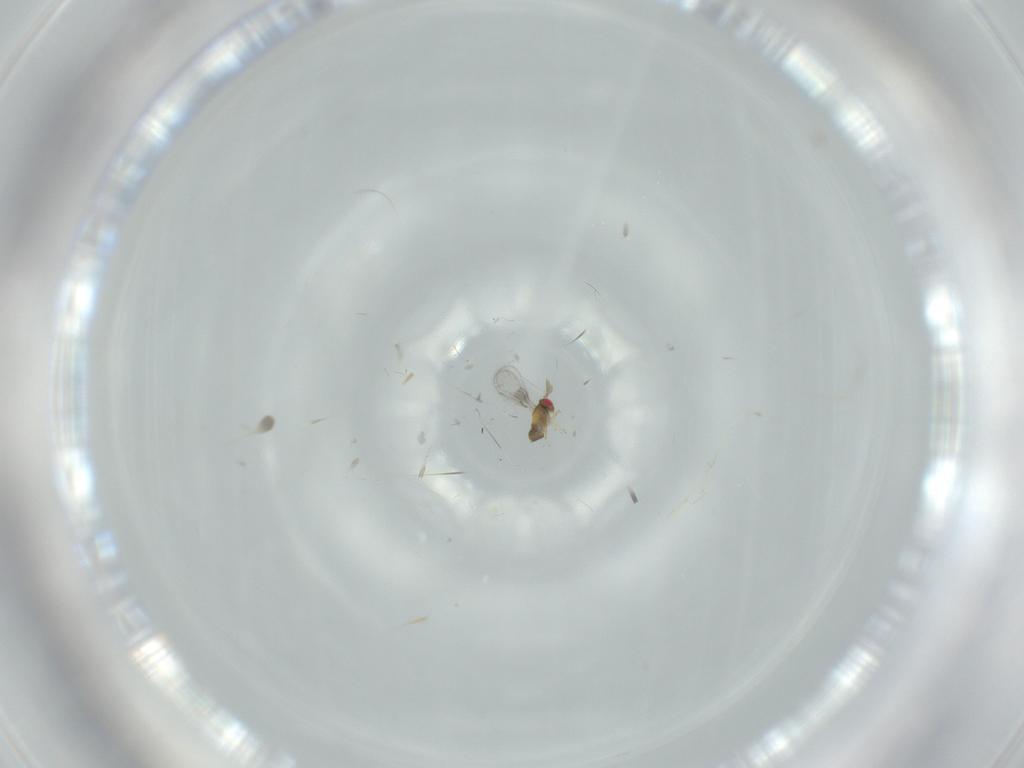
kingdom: Animalia
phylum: Arthropoda
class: Insecta
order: Hymenoptera
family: Trichogrammatidae
